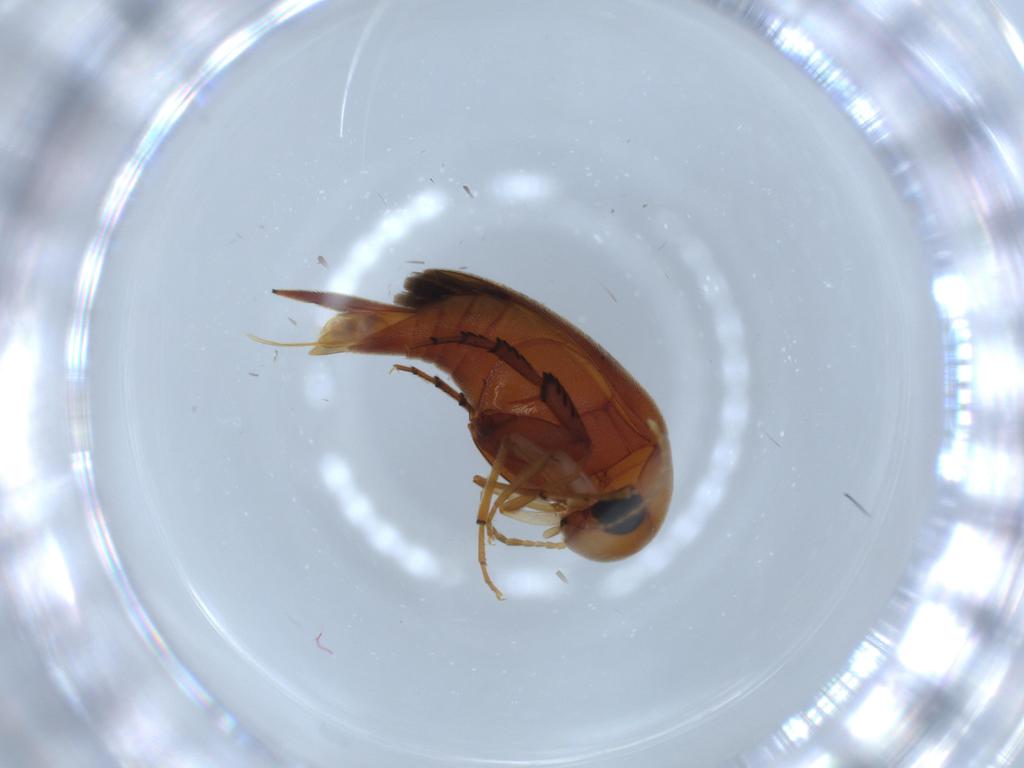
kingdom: Animalia
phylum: Arthropoda
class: Insecta
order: Coleoptera
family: Mordellidae
